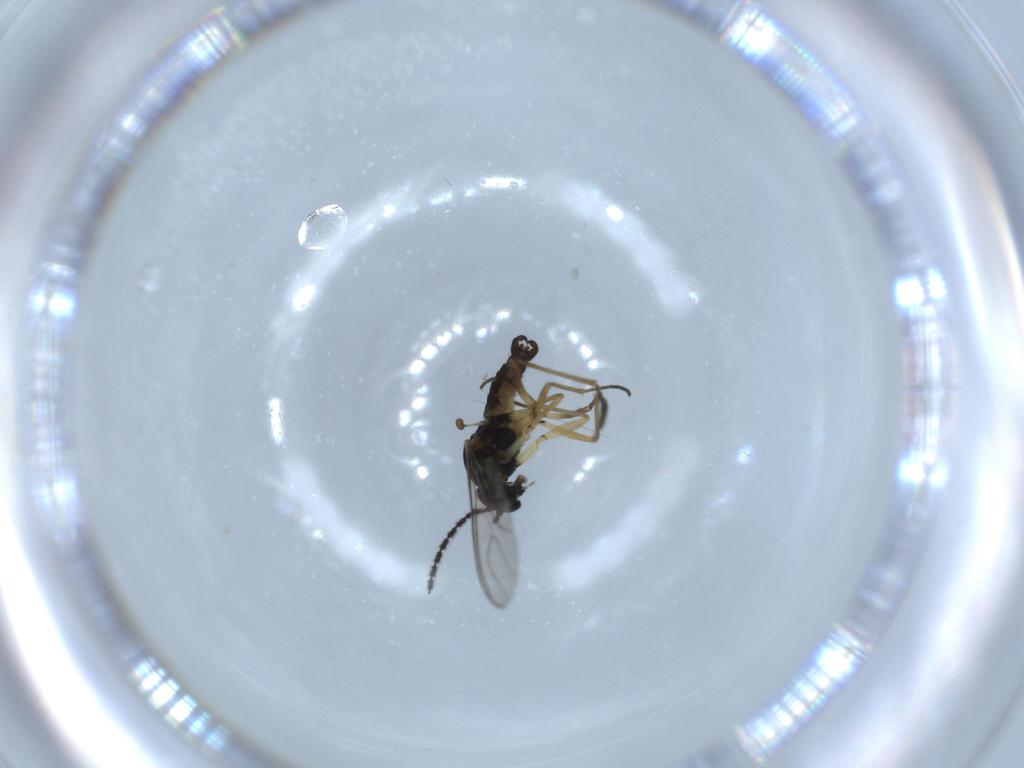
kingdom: Animalia
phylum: Arthropoda
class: Insecta
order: Diptera
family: Sciaridae
